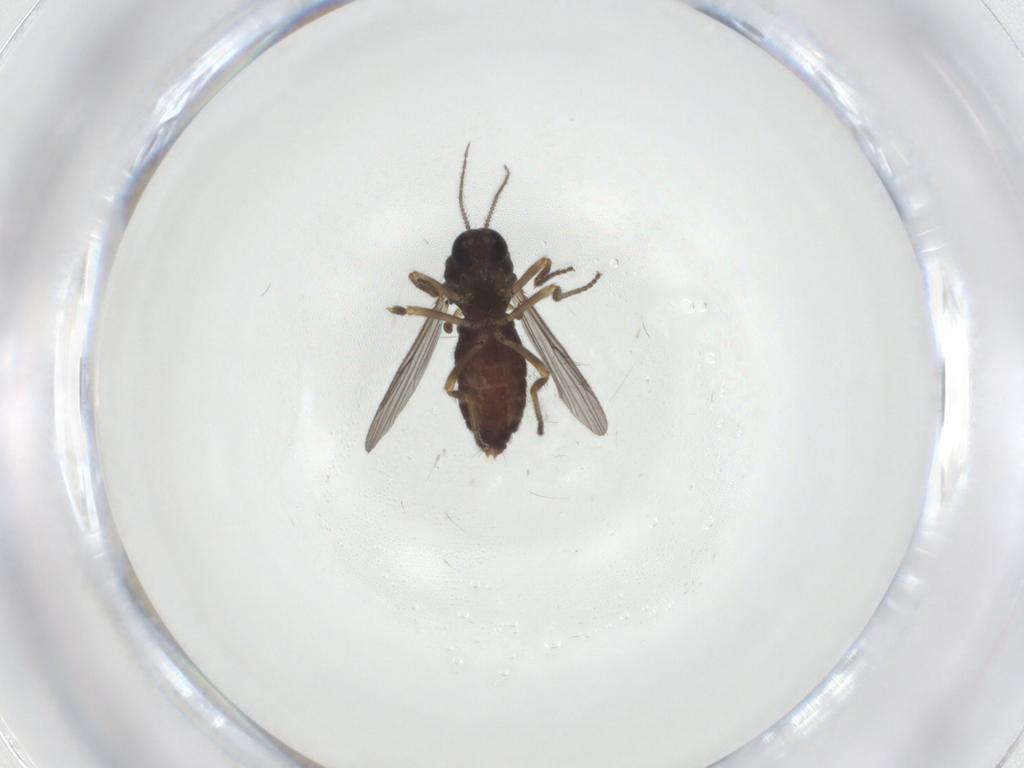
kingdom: Animalia
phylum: Arthropoda
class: Insecta
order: Diptera
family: Ceratopogonidae
